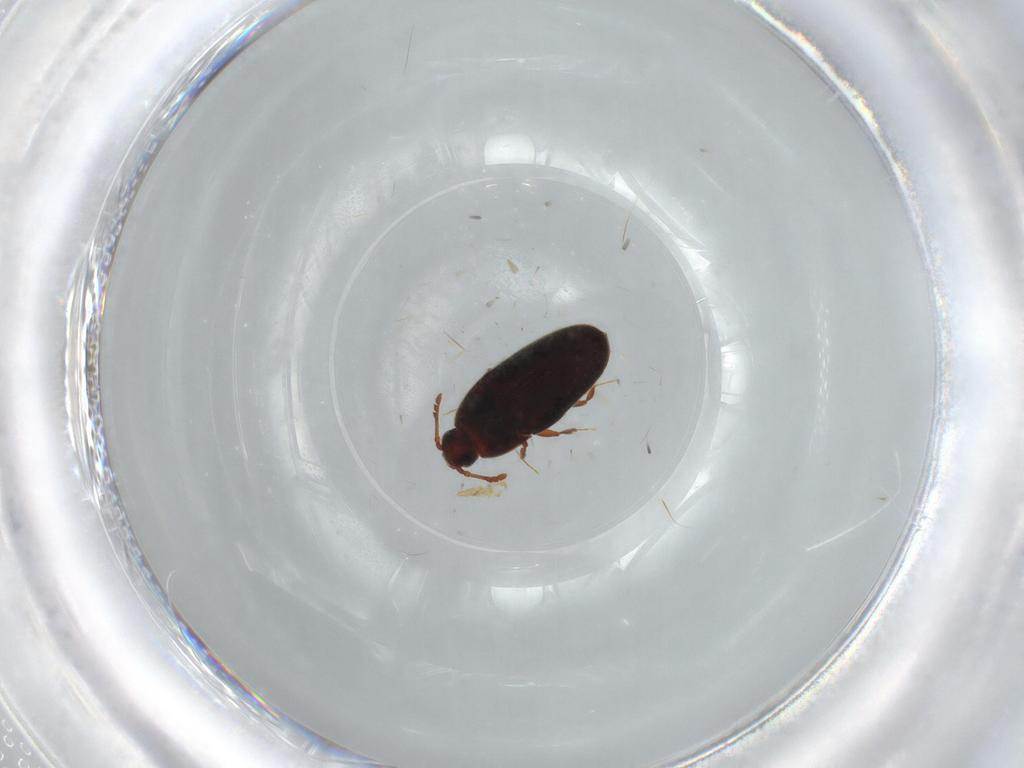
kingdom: Animalia
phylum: Arthropoda
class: Insecta
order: Coleoptera
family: Throscidae
